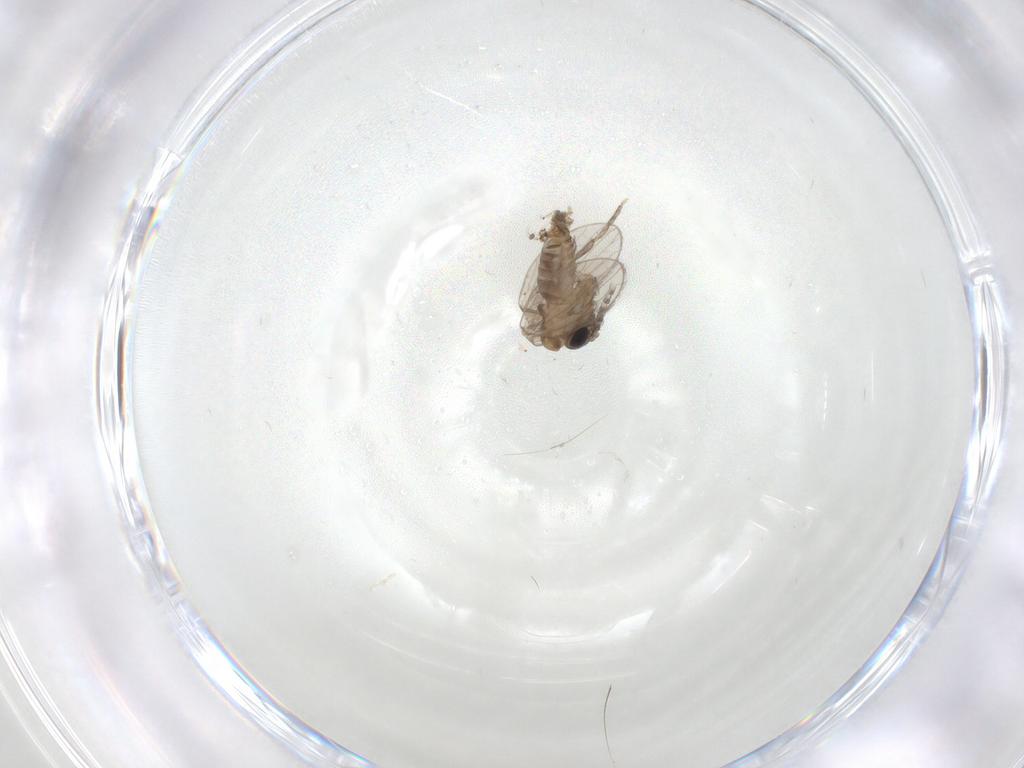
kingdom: Animalia
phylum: Arthropoda
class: Insecta
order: Diptera
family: Psychodidae
